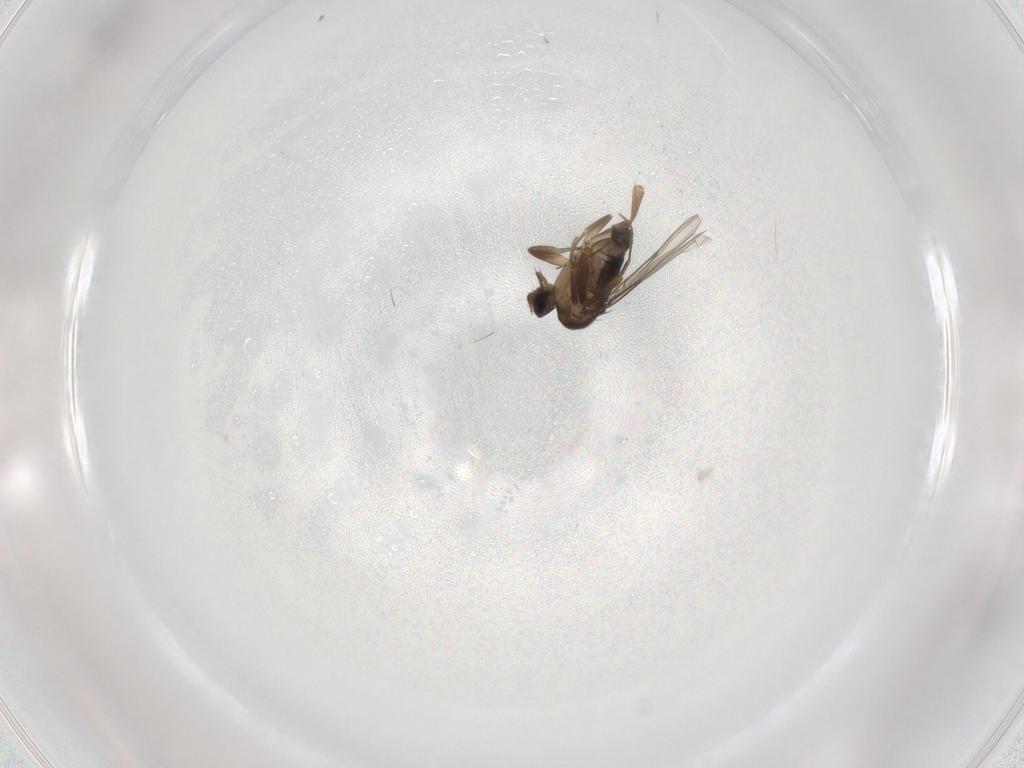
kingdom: Animalia
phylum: Arthropoda
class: Insecta
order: Diptera
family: Phoridae
